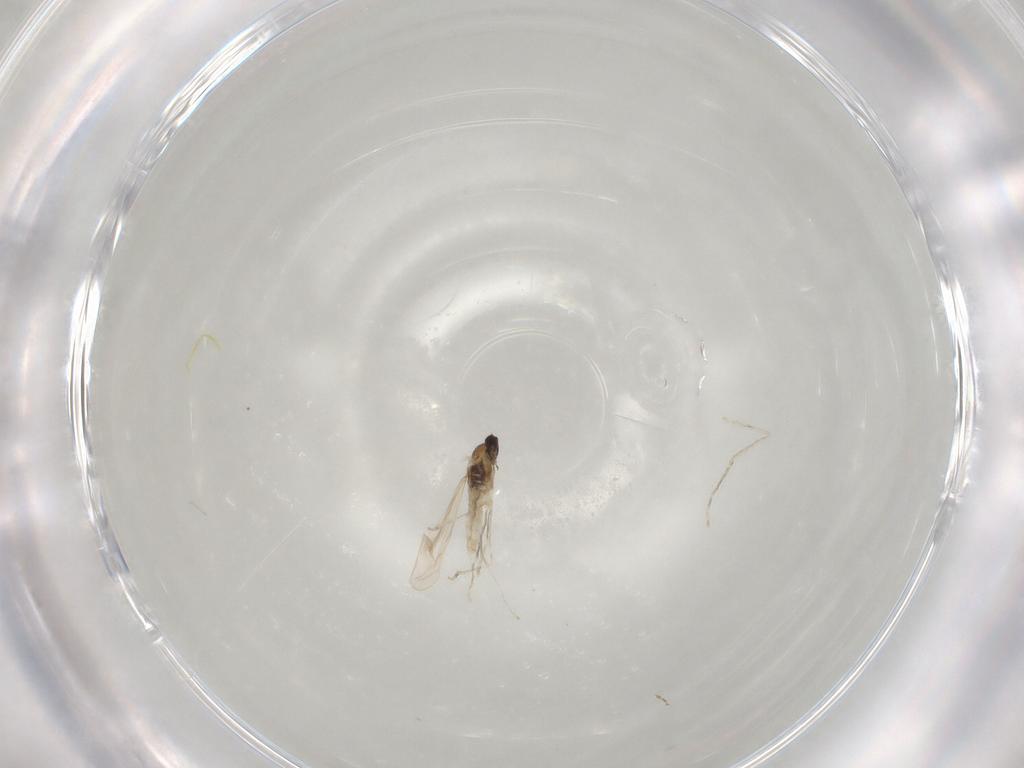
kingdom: Animalia
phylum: Arthropoda
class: Insecta
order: Diptera
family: Cecidomyiidae
